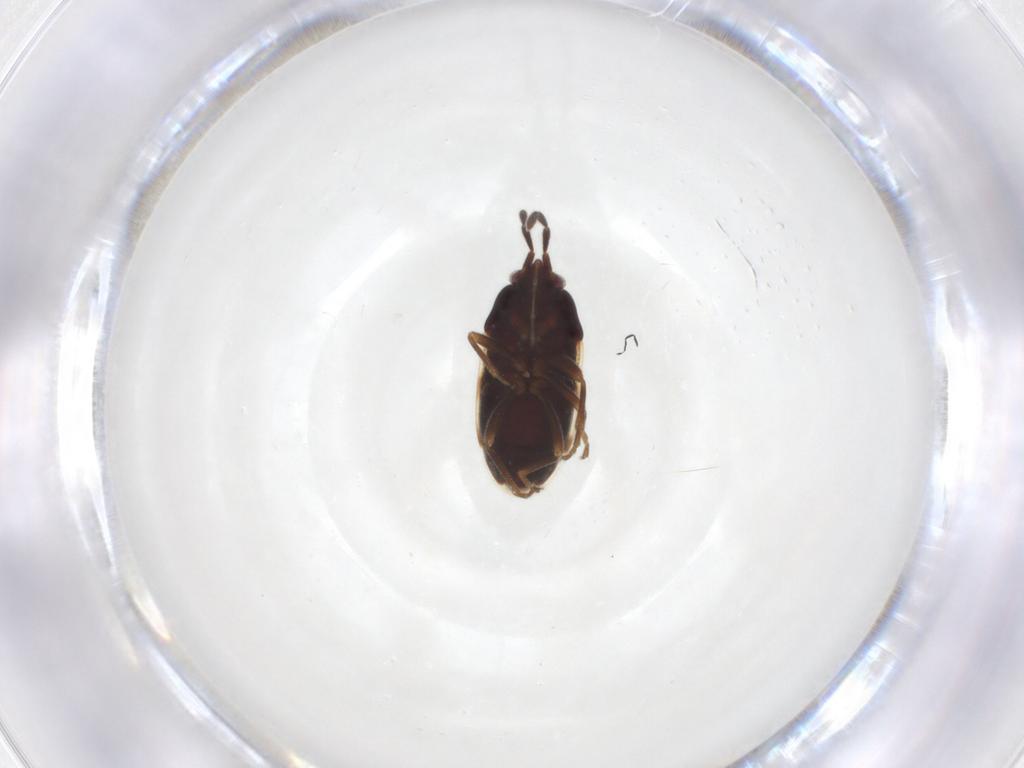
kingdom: Animalia
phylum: Arthropoda
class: Insecta
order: Hemiptera
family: Rhyparochromidae
